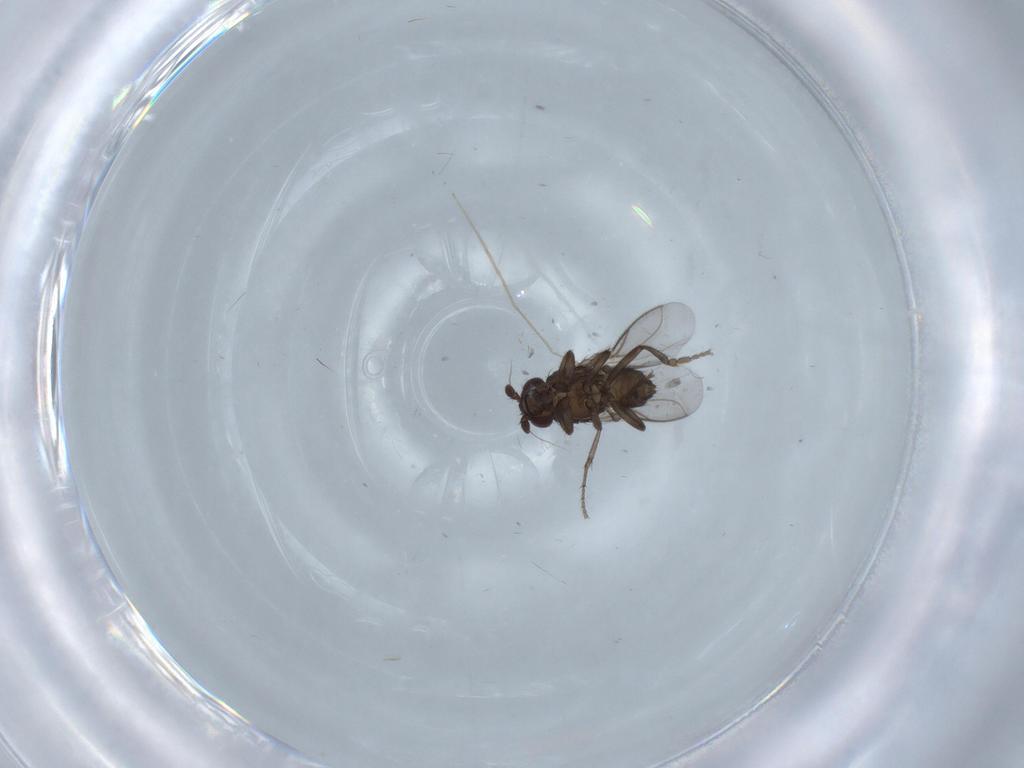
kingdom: Animalia
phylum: Arthropoda
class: Insecta
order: Diptera
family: Chironomidae
